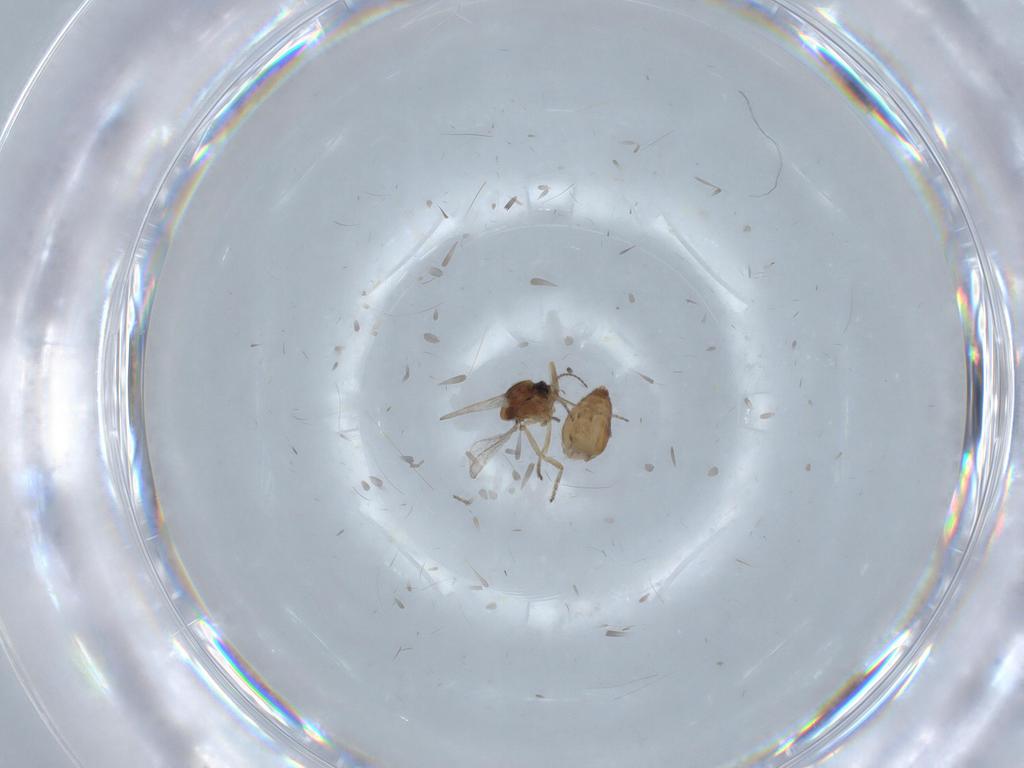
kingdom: Animalia
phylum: Arthropoda
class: Insecta
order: Diptera
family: Ceratopogonidae
